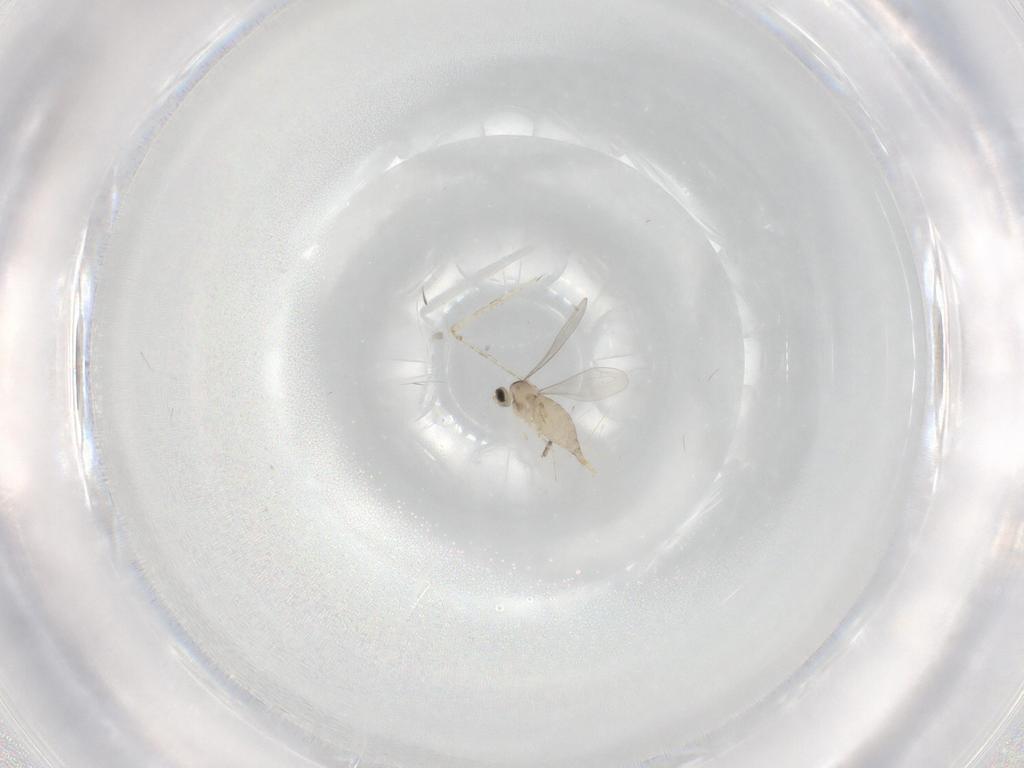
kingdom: Animalia
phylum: Arthropoda
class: Insecta
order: Diptera
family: Cecidomyiidae
